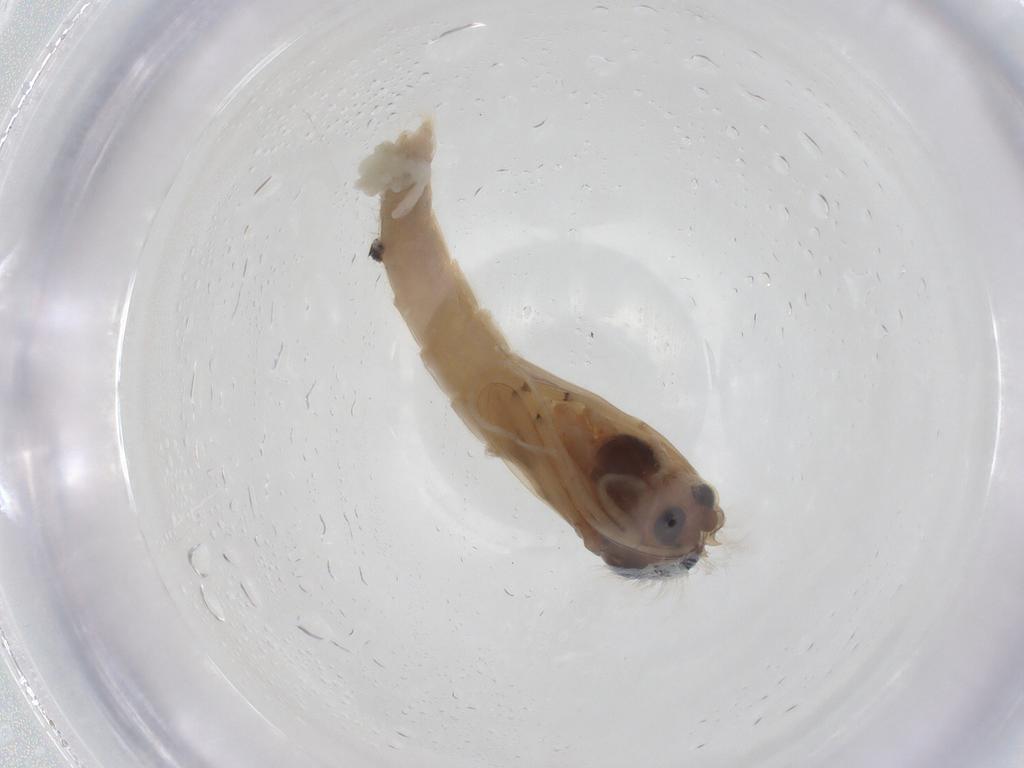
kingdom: Animalia
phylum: Arthropoda
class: Insecta
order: Diptera
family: Chironomidae
